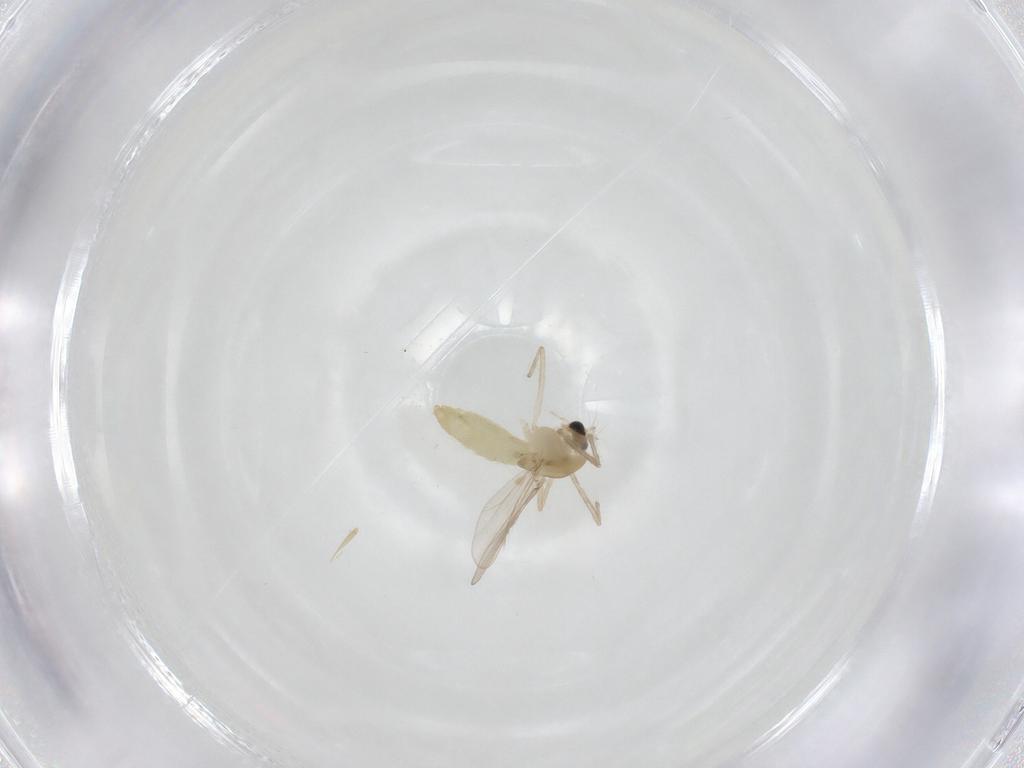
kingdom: Animalia
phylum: Arthropoda
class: Insecta
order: Diptera
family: Chironomidae
